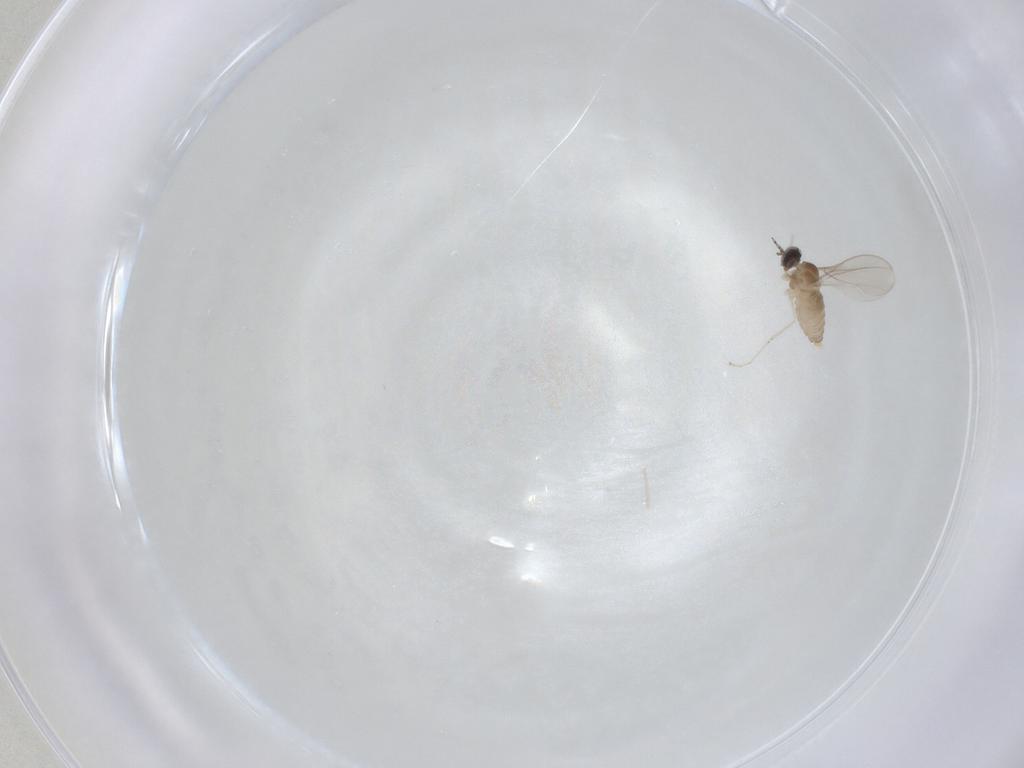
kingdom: Animalia
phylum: Arthropoda
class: Insecta
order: Diptera
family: Cecidomyiidae
